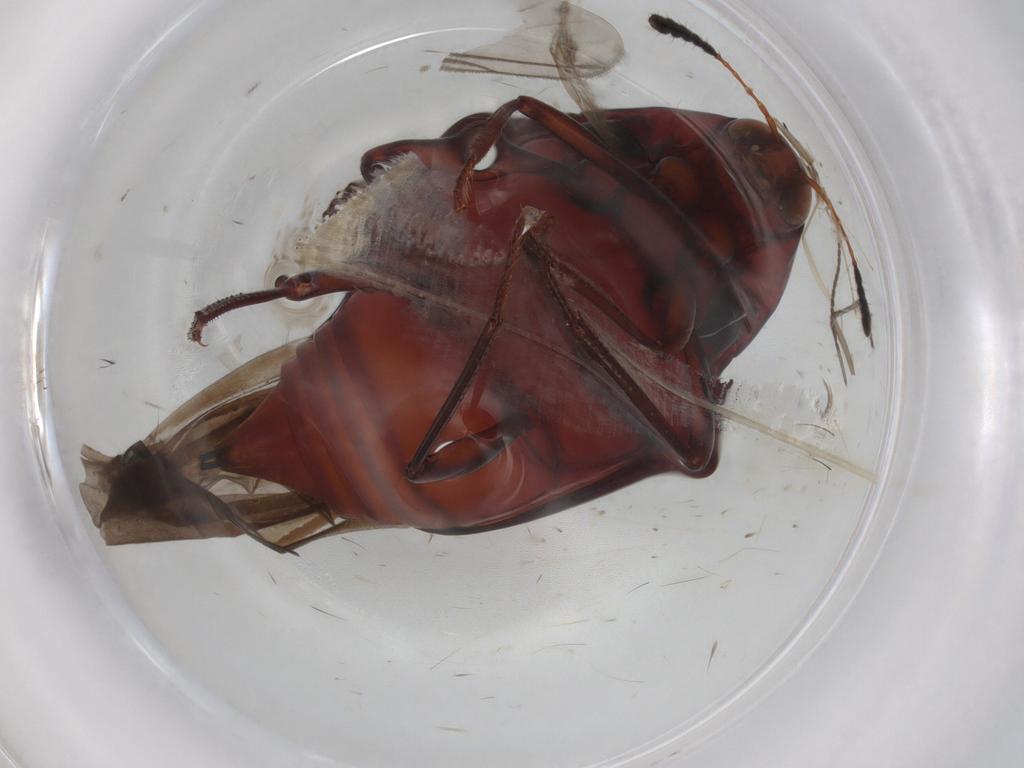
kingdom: Animalia
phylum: Arthropoda
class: Insecta
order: Coleoptera
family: Staphylinidae
